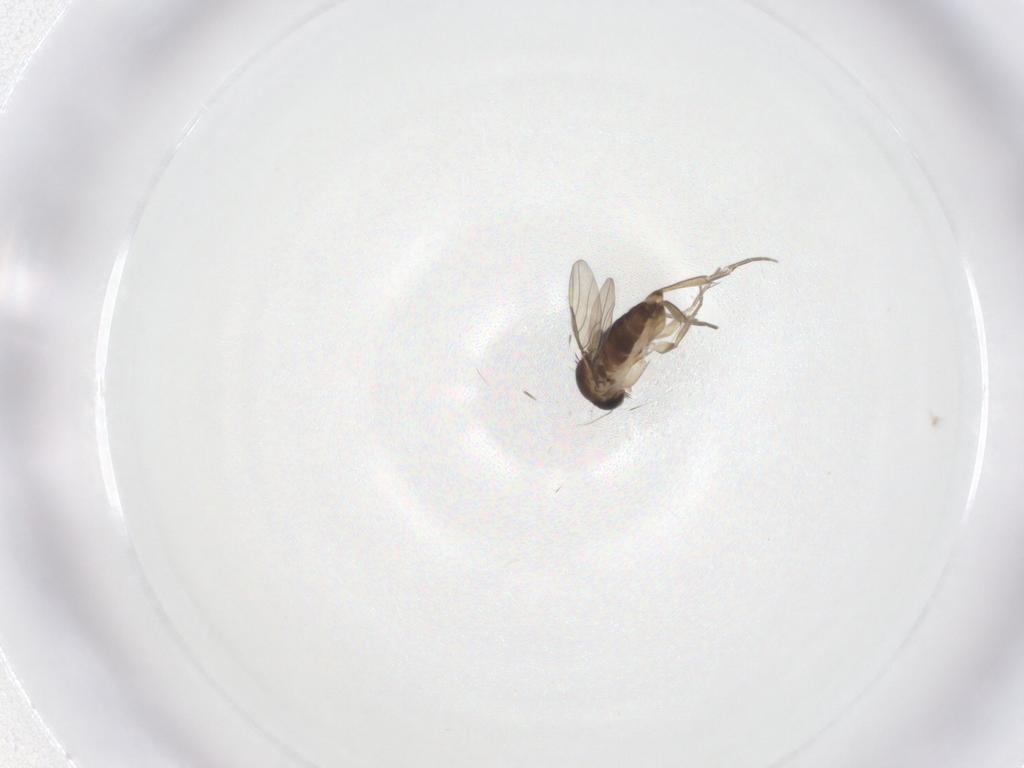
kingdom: Animalia
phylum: Arthropoda
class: Insecta
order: Diptera
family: Phoridae
